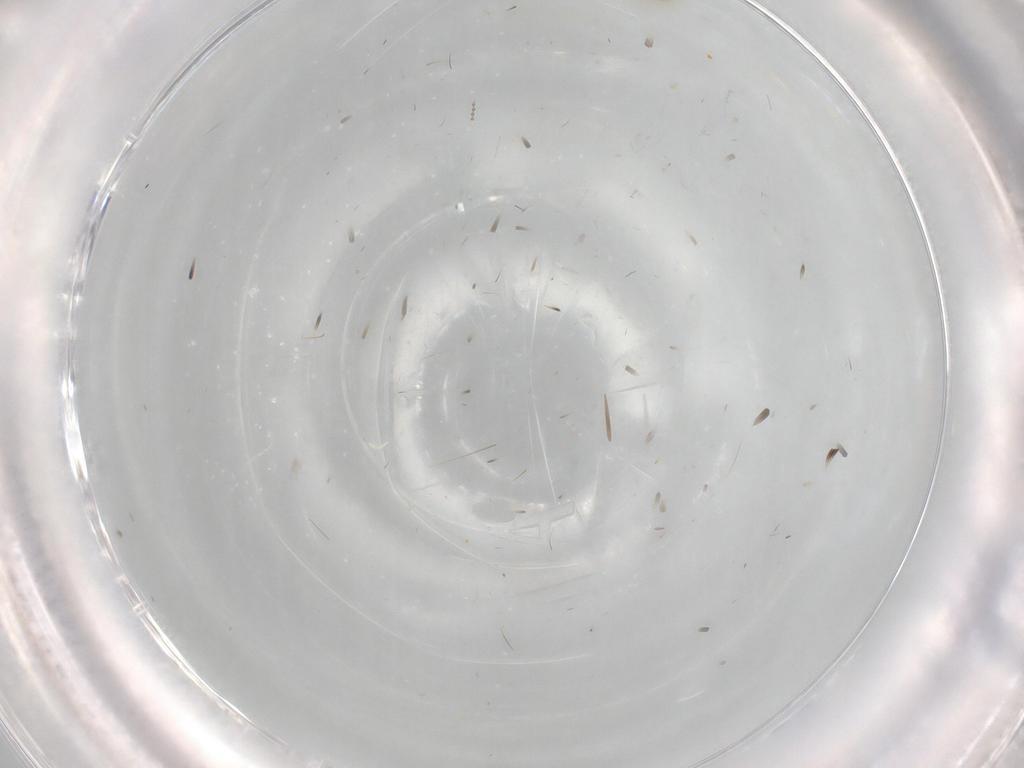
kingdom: Animalia
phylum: Arthropoda
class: Insecta
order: Hemiptera
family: Aleyrodidae
